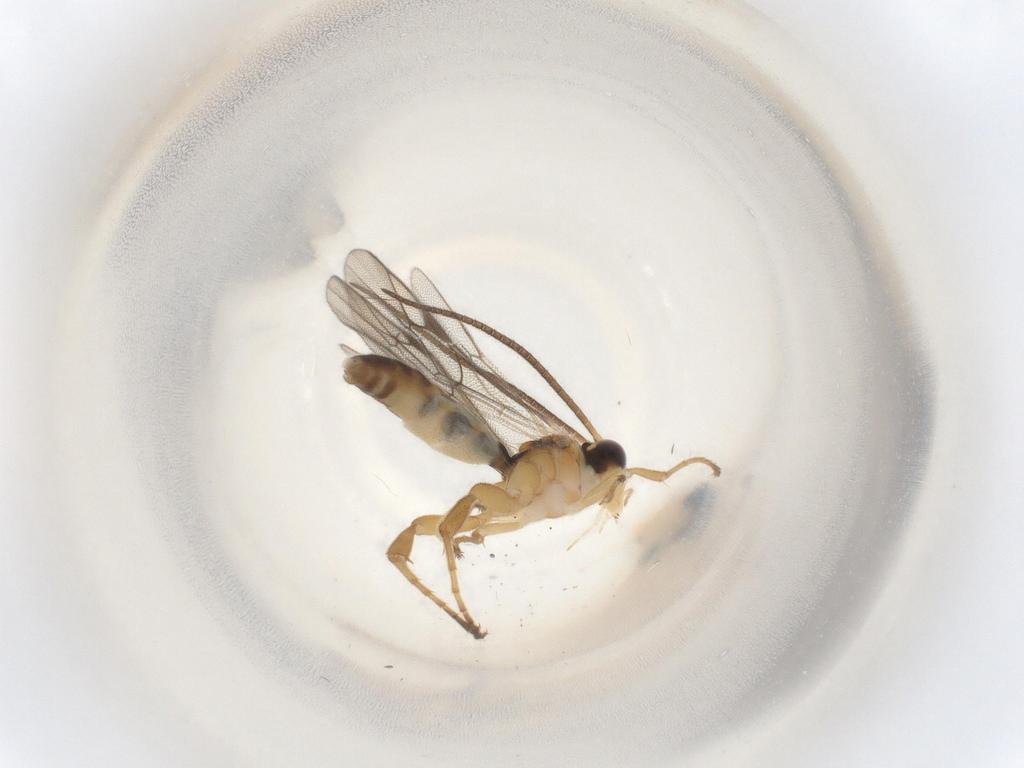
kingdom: Animalia
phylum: Arthropoda
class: Insecta
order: Hymenoptera
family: Ichneumonidae
